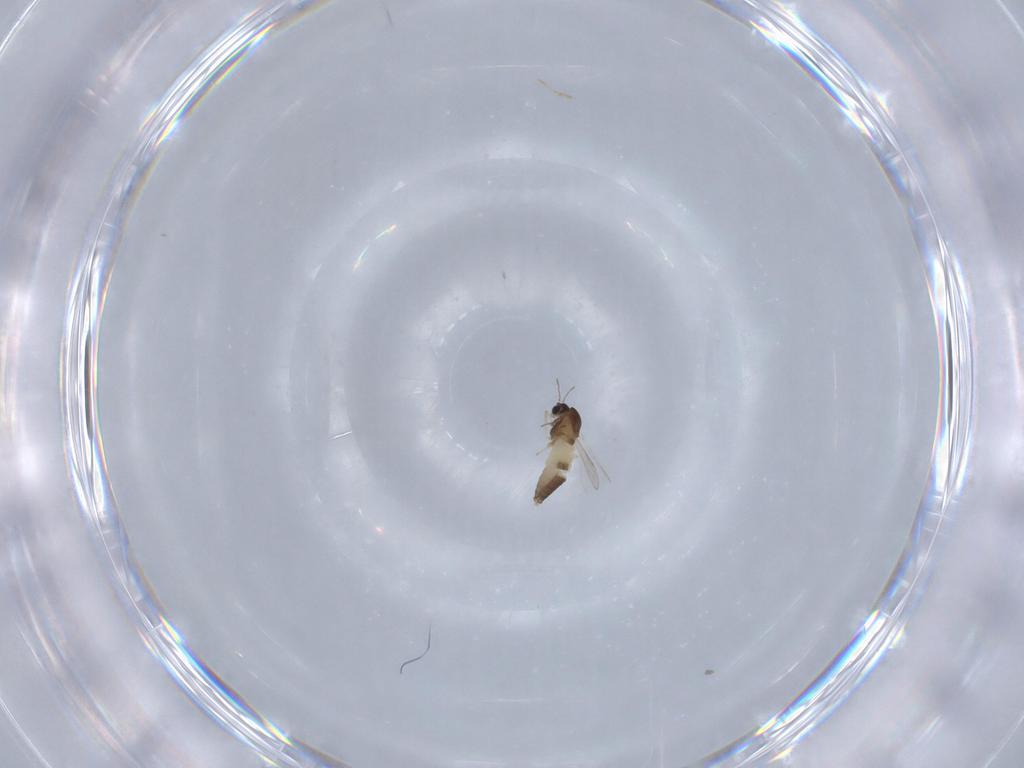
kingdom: Animalia
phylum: Arthropoda
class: Insecta
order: Diptera
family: Chironomidae
